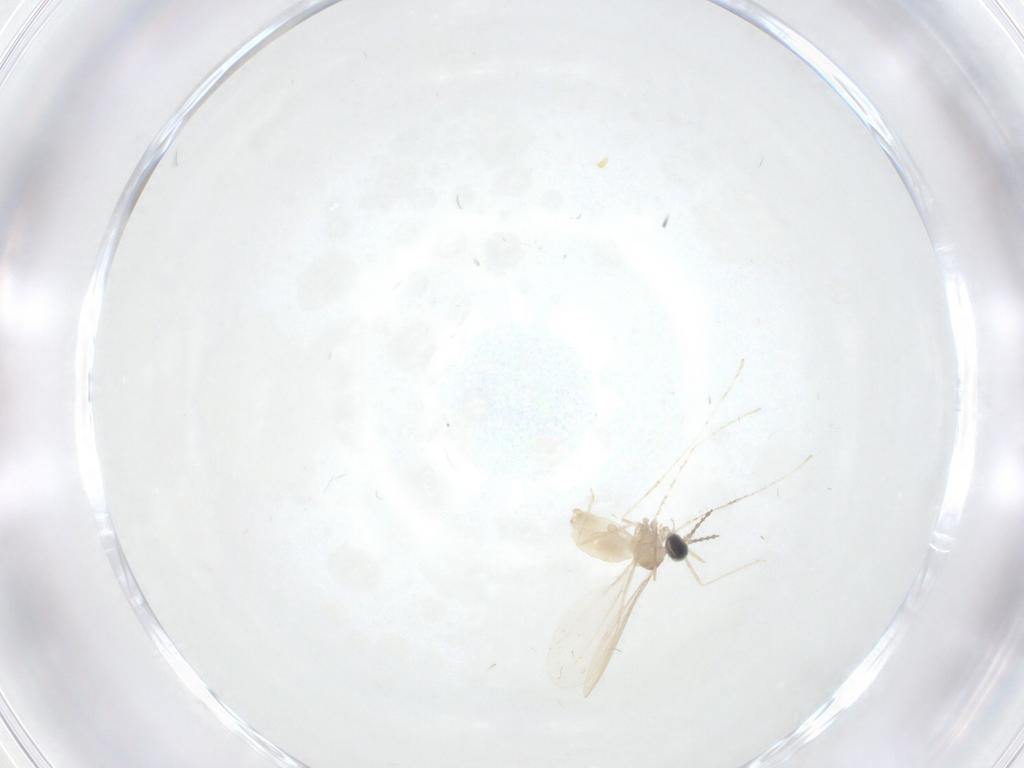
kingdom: Animalia
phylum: Arthropoda
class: Insecta
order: Diptera
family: Cecidomyiidae
